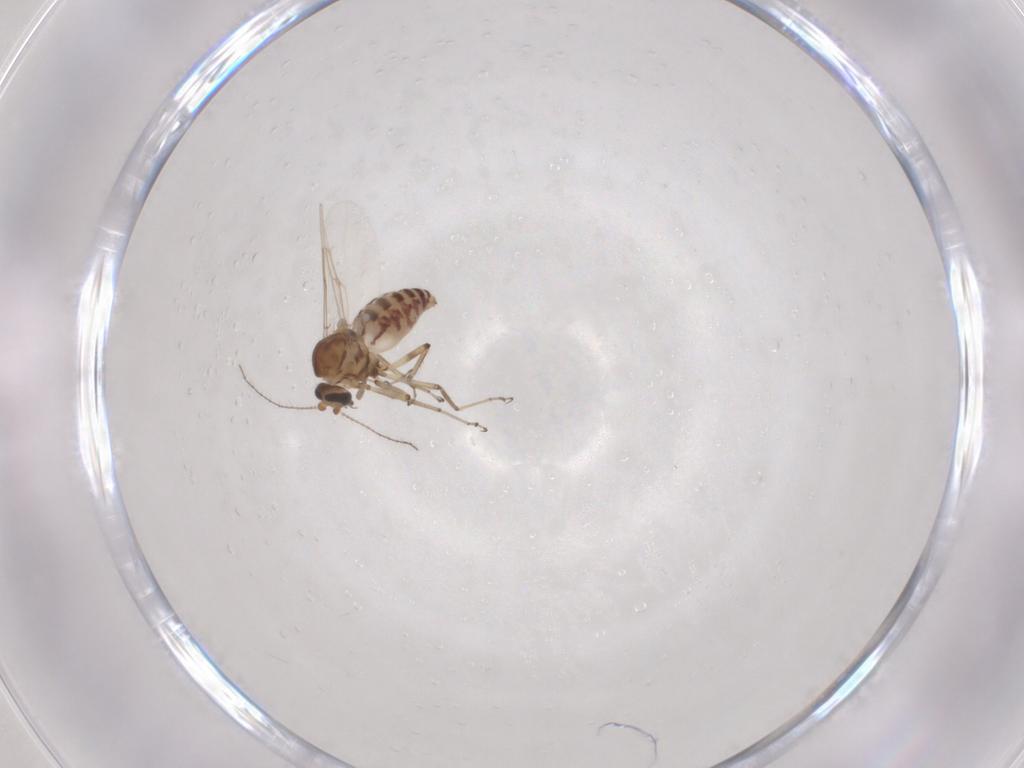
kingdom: Animalia
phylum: Arthropoda
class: Insecta
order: Diptera
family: Ceratopogonidae
